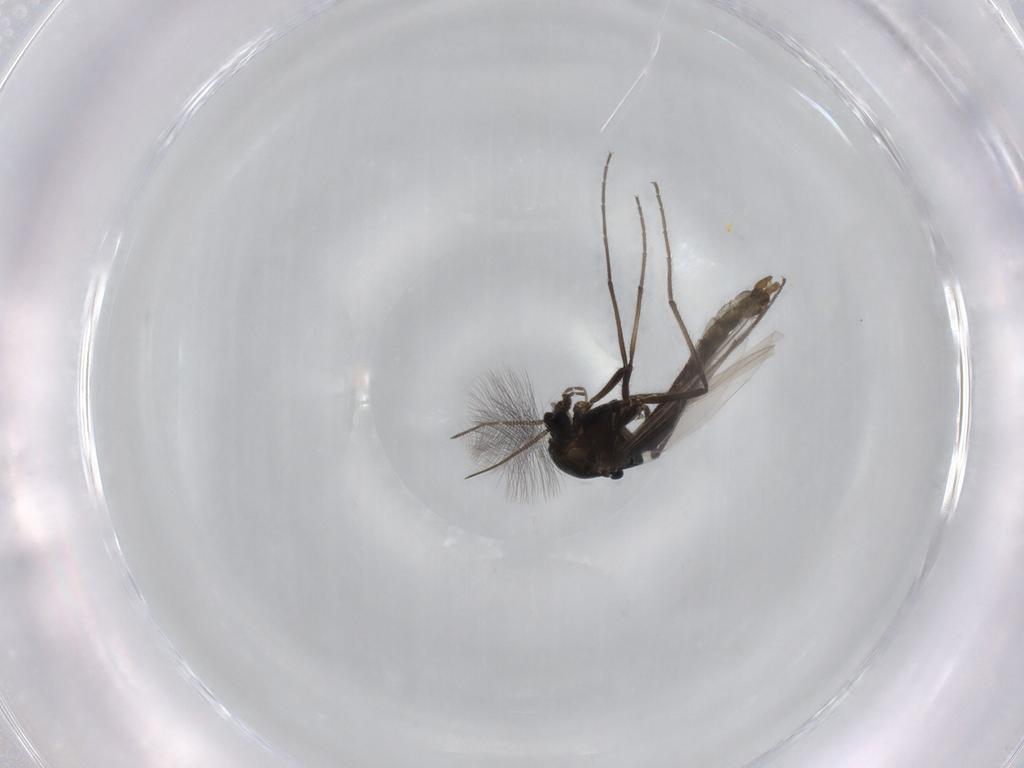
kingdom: Animalia
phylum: Arthropoda
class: Insecta
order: Diptera
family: Chironomidae
